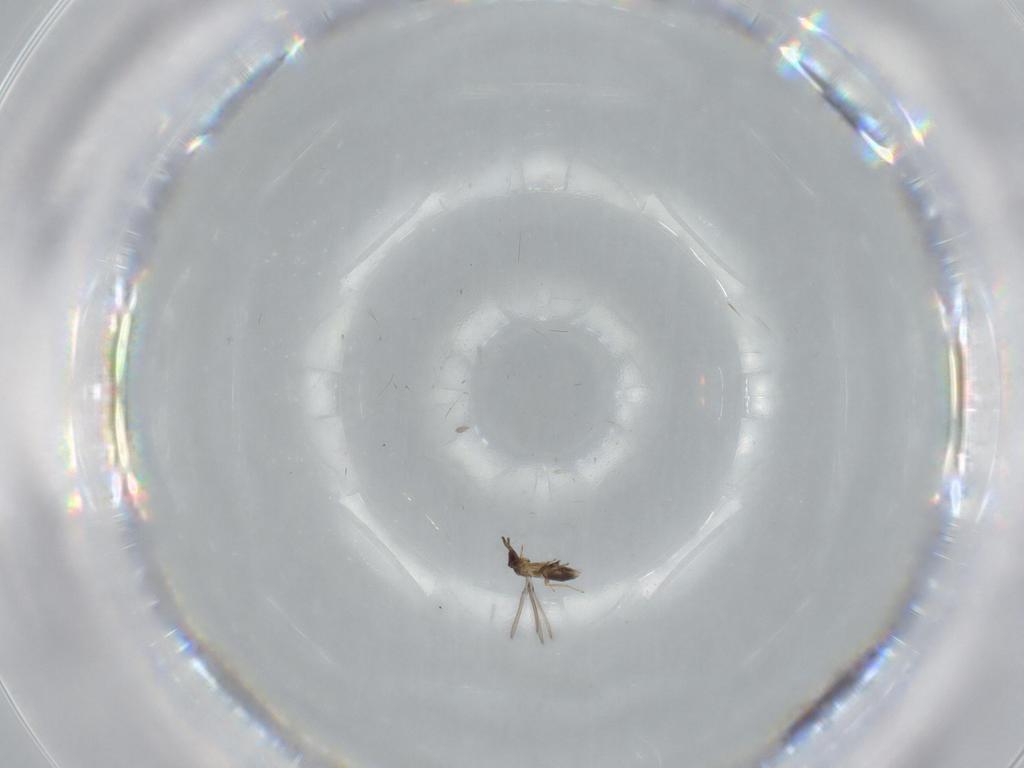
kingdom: Animalia
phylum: Arthropoda
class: Insecta
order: Hymenoptera
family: Mymaridae
